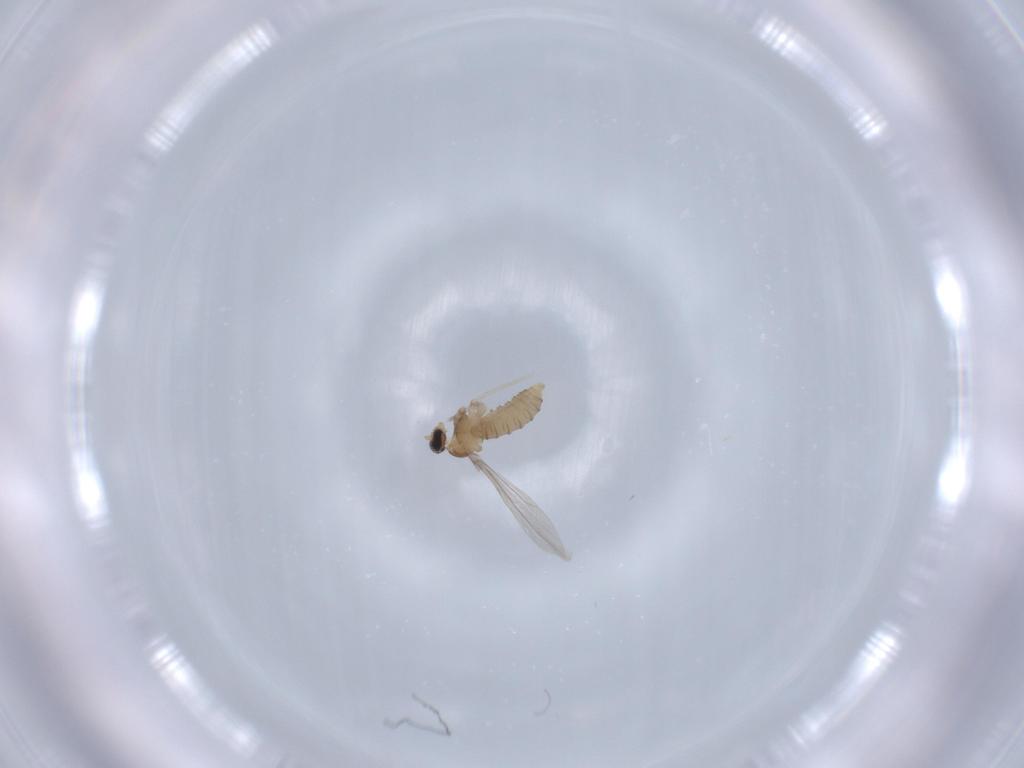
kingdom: Animalia
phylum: Arthropoda
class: Insecta
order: Diptera
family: Cecidomyiidae
